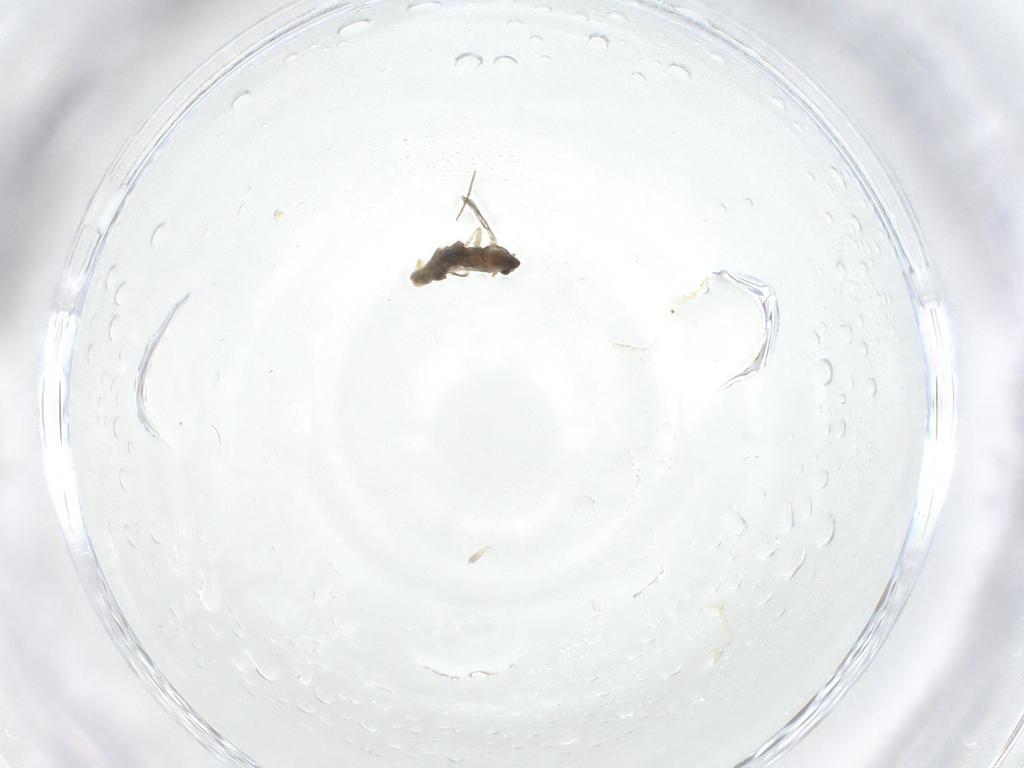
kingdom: Animalia
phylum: Arthropoda
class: Insecta
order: Diptera
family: Chironomidae
